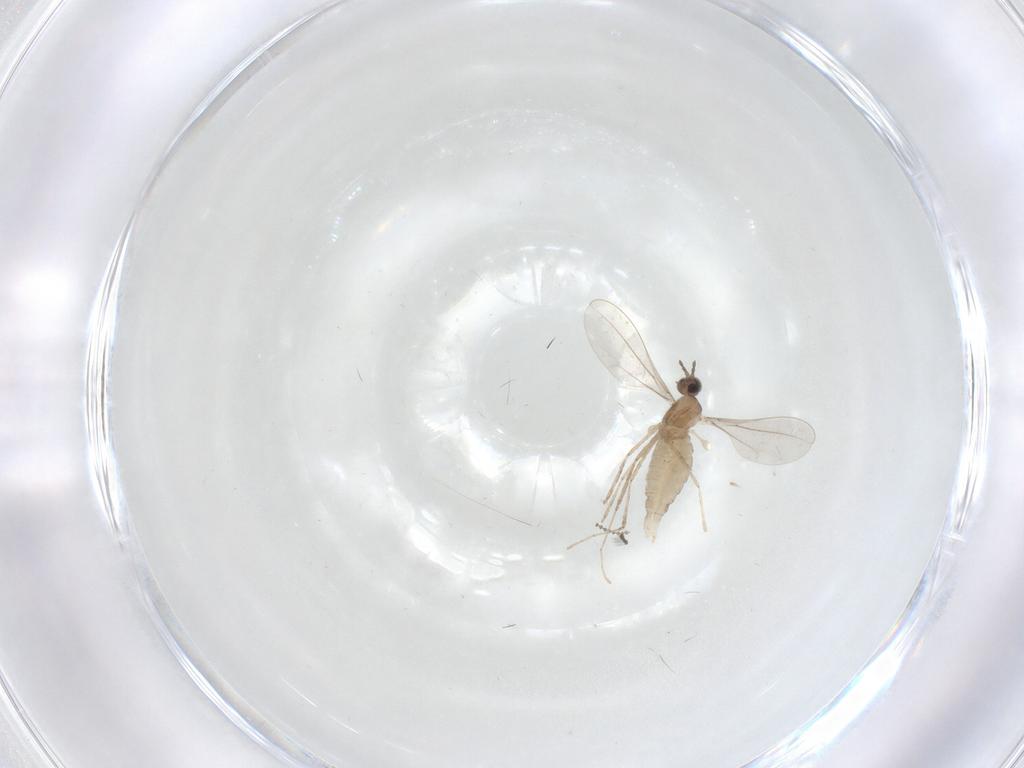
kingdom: Animalia
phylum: Arthropoda
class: Insecta
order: Diptera
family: Cecidomyiidae
